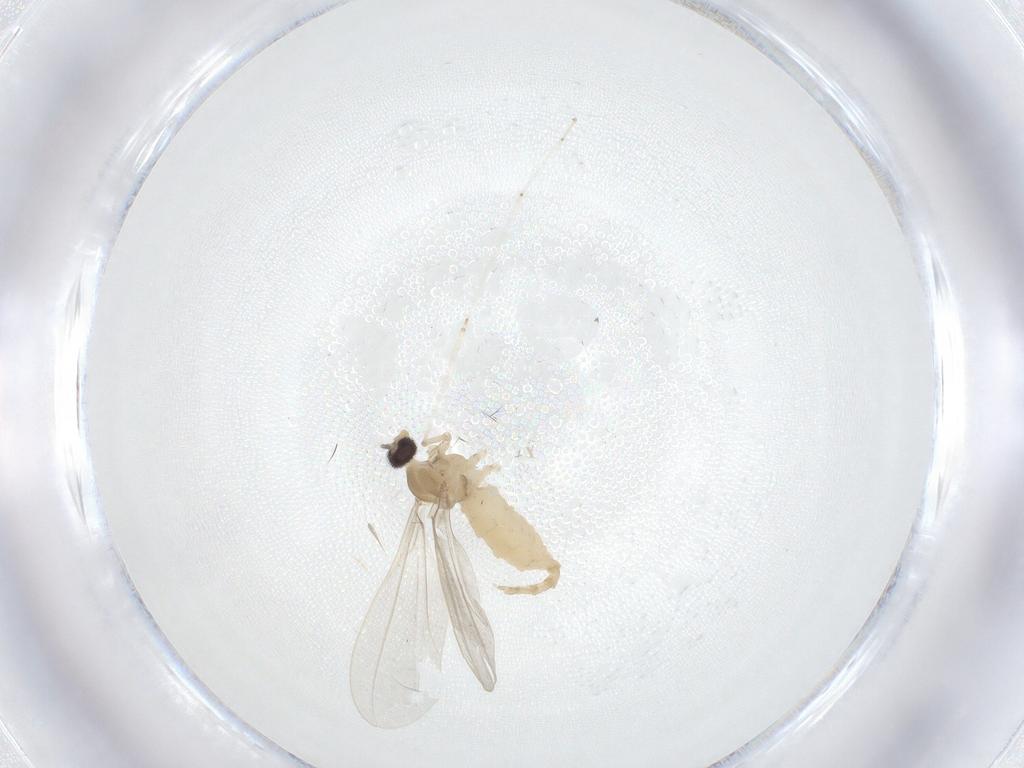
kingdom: Animalia
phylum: Arthropoda
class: Insecta
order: Diptera
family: Cecidomyiidae
